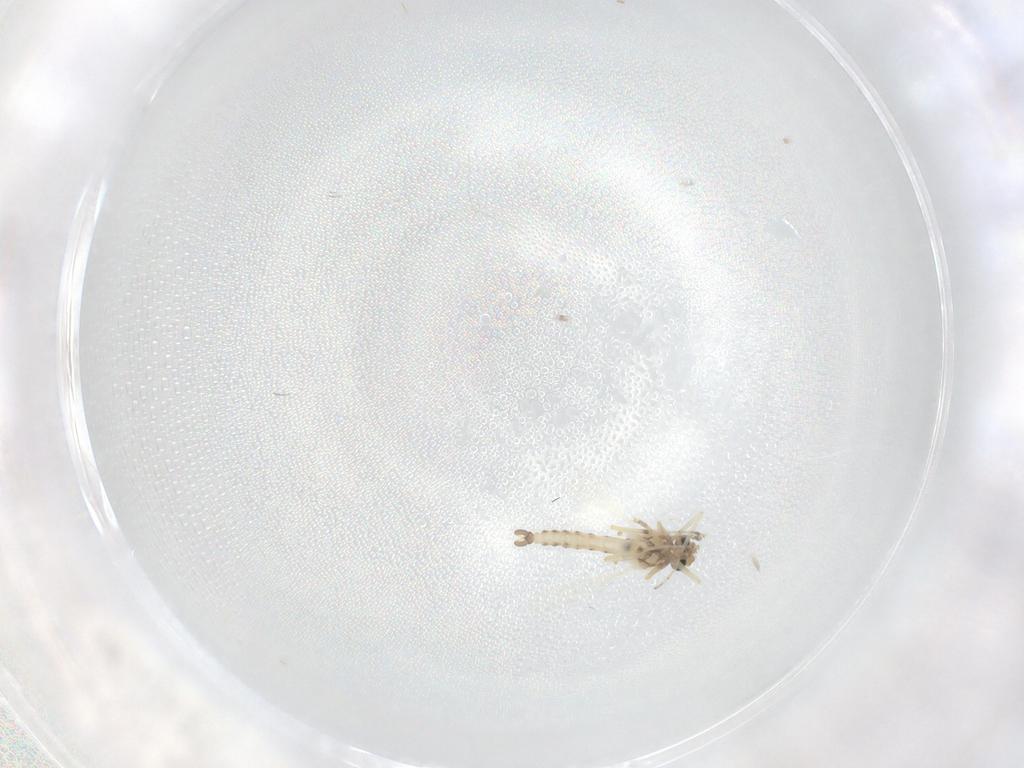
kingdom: Animalia
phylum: Arthropoda
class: Insecta
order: Diptera
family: Ceratopogonidae
